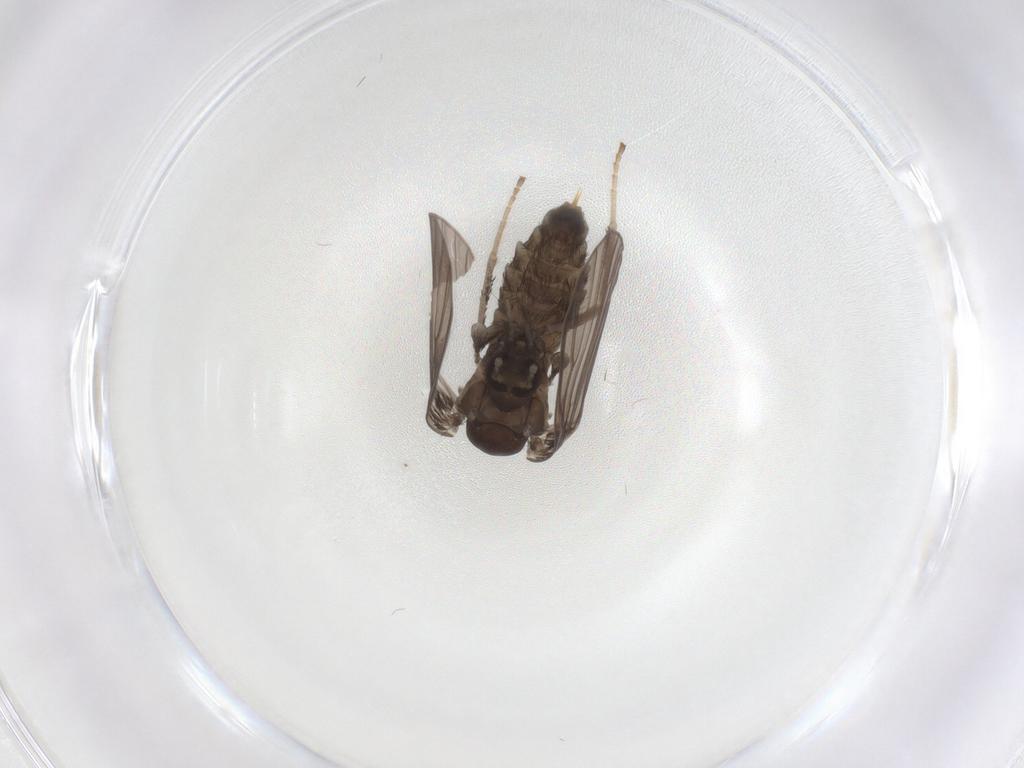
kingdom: Animalia
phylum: Arthropoda
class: Insecta
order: Diptera
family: Psychodidae
